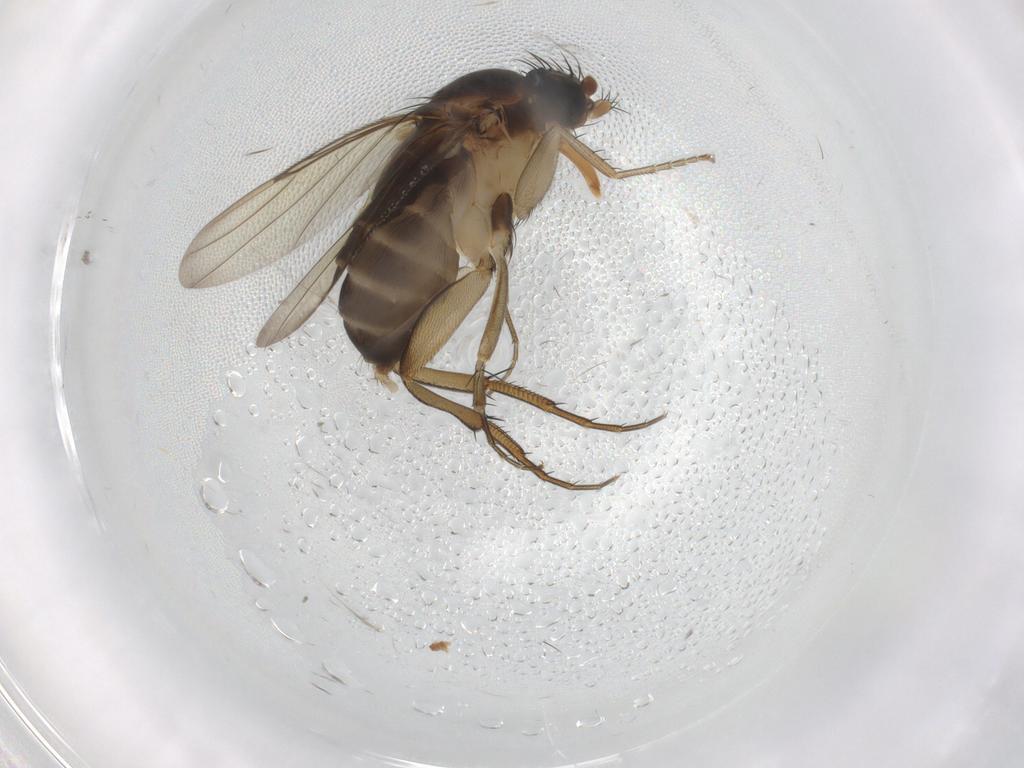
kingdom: Animalia
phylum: Arthropoda
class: Insecta
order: Diptera
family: Phoridae
